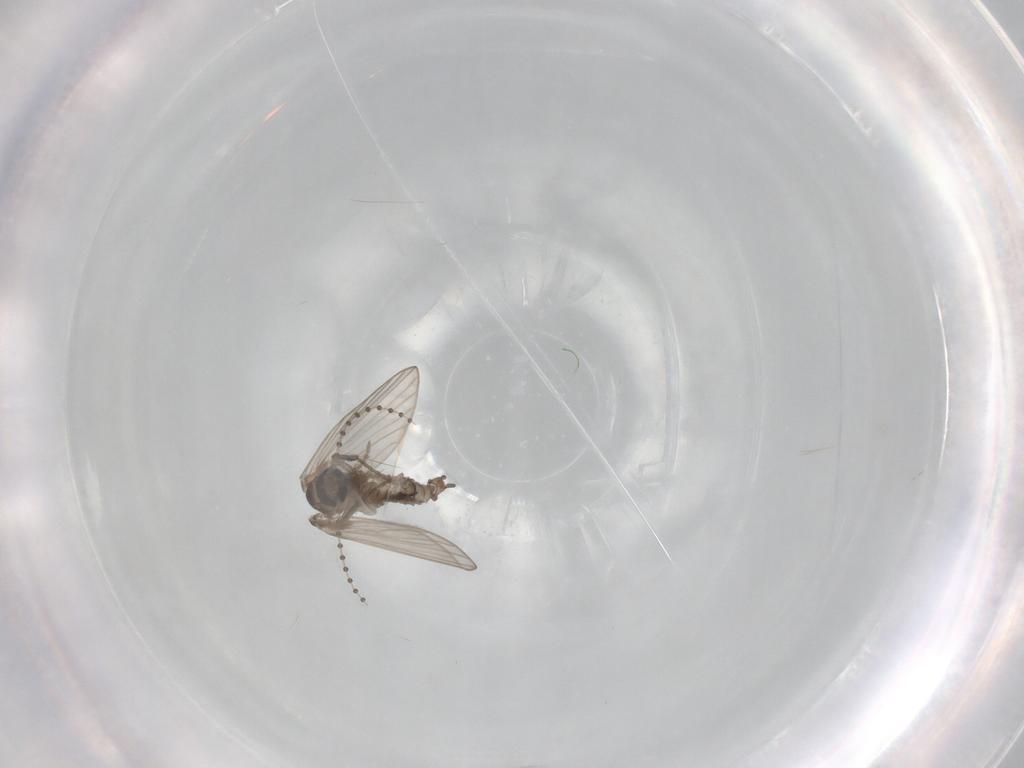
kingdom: Animalia
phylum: Arthropoda
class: Insecta
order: Diptera
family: Psychodidae
